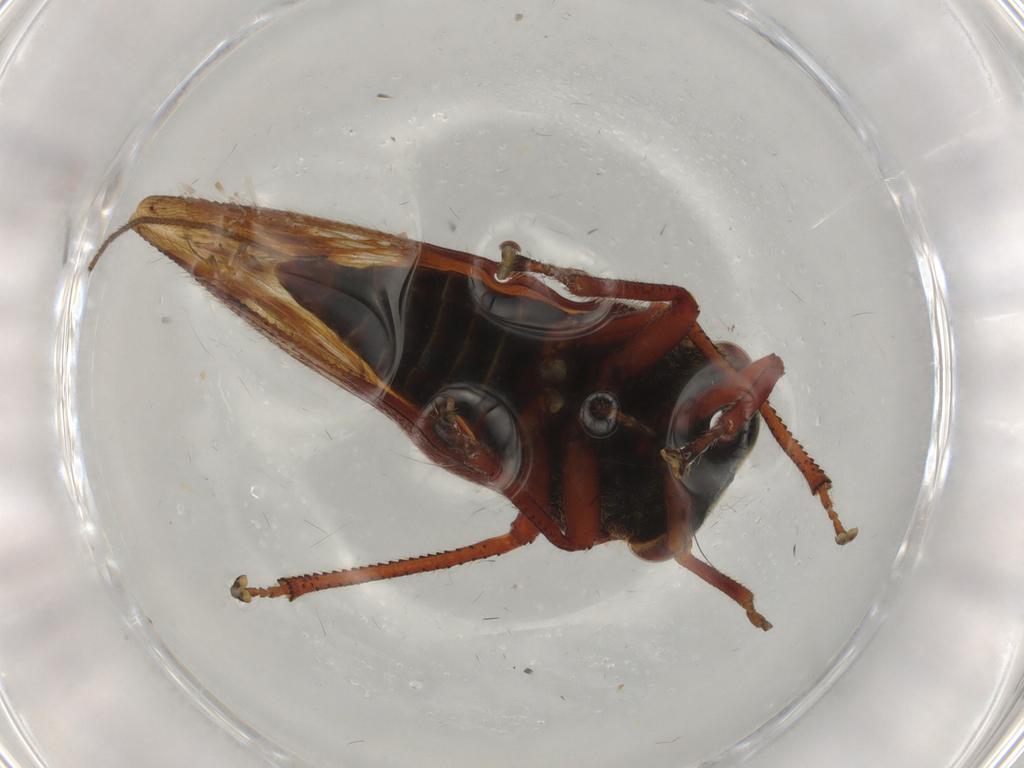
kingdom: Animalia
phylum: Arthropoda
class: Insecta
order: Hemiptera
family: Membracidae
